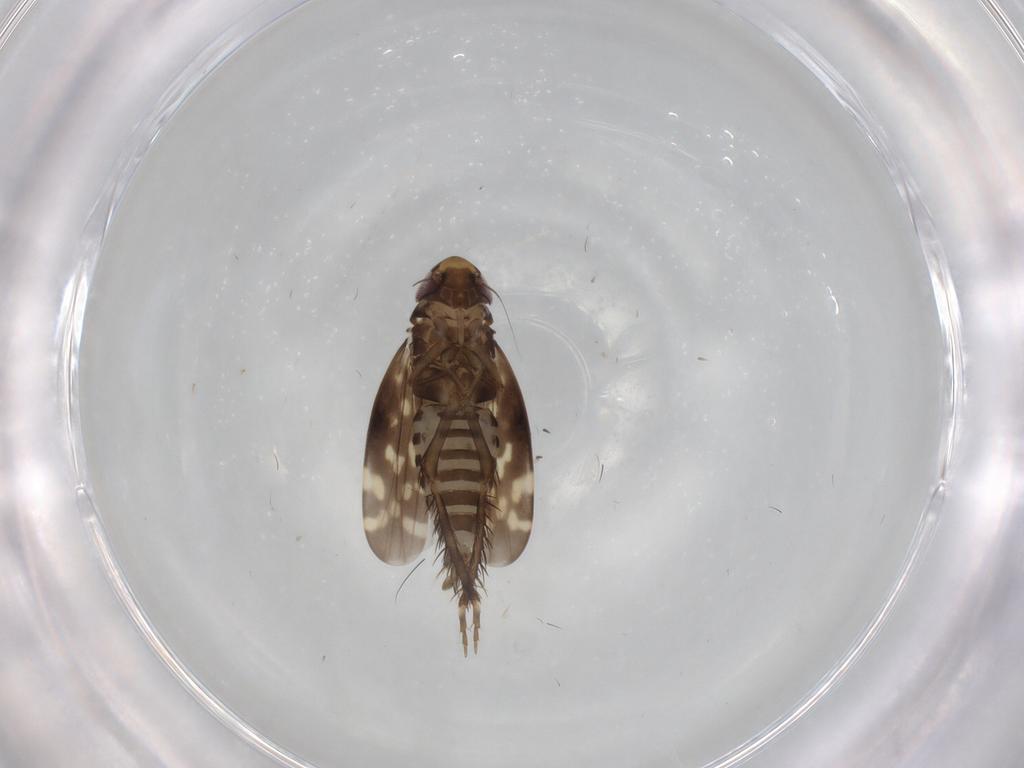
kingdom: Animalia
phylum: Arthropoda
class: Insecta
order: Hemiptera
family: Cicadellidae
